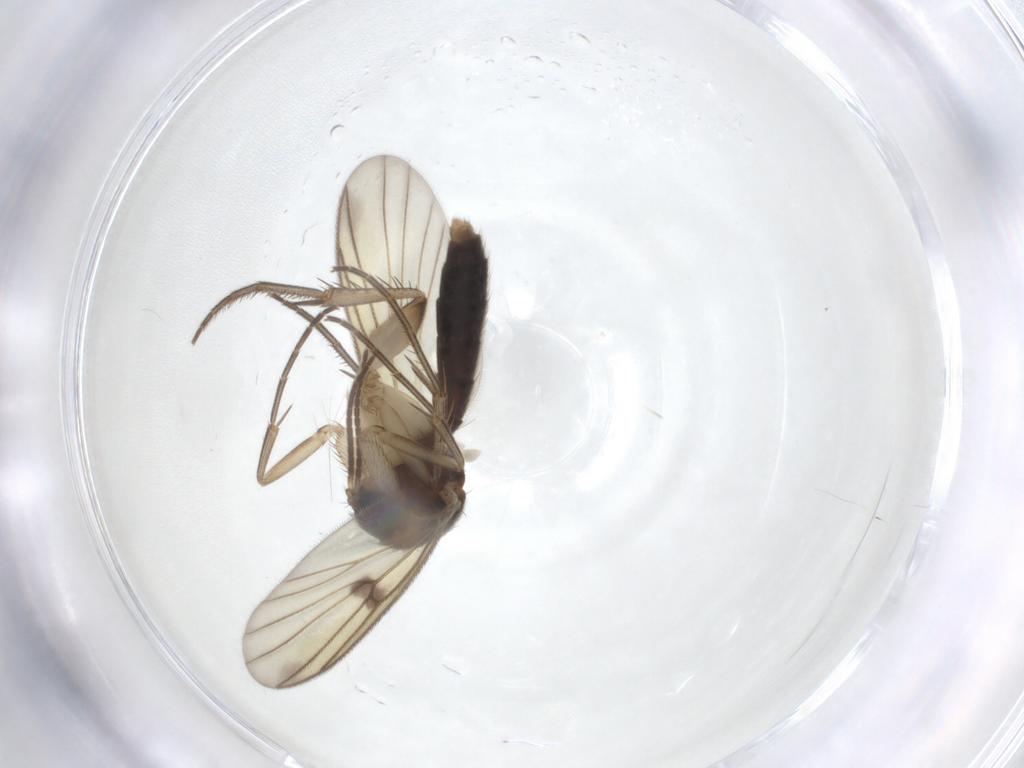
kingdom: Animalia
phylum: Arthropoda
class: Insecta
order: Diptera
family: Mycetophilidae
